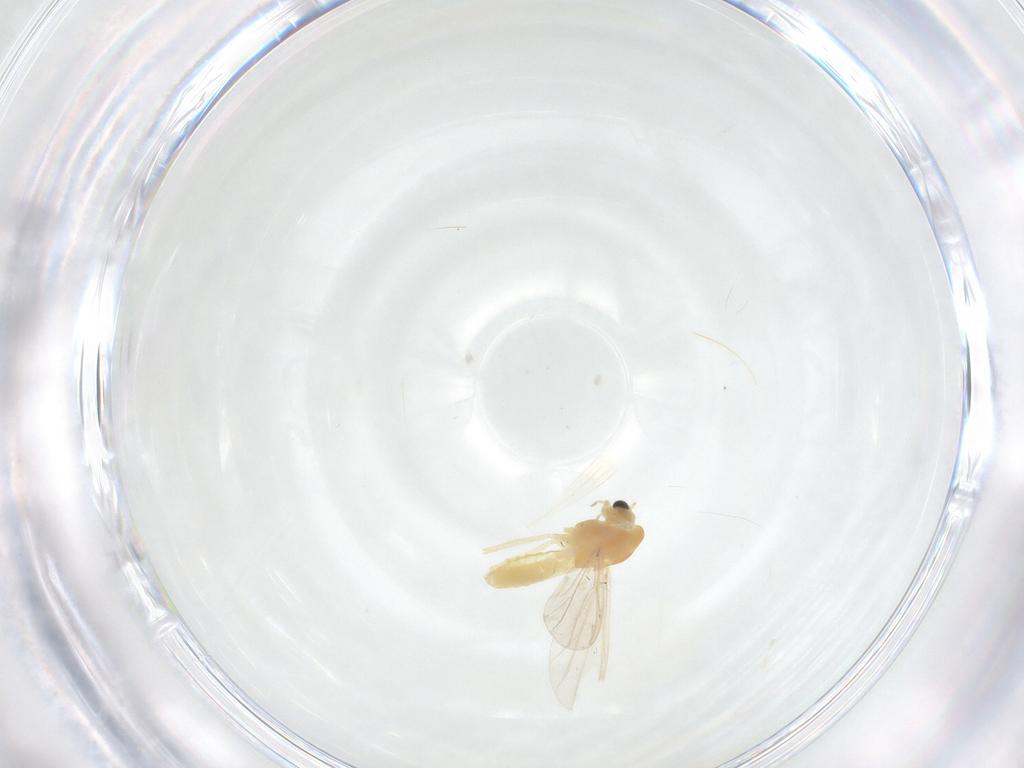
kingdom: Animalia
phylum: Arthropoda
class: Insecta
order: Diptera
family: Chironomidae
